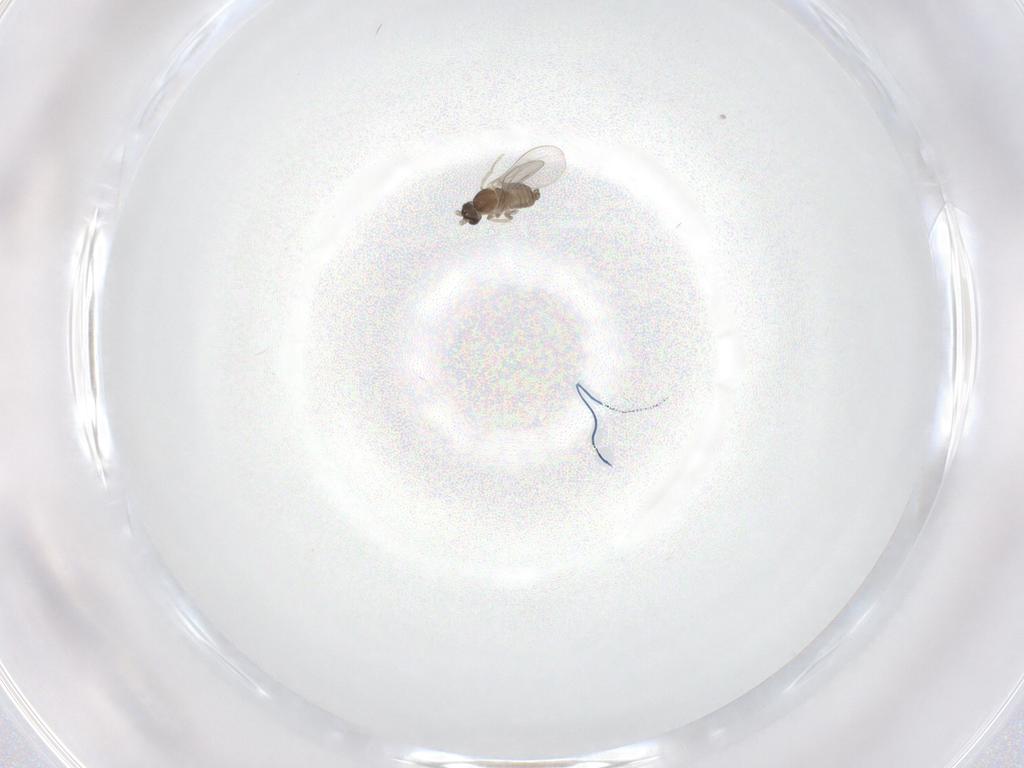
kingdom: Animalia
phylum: Arthropoda
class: Insecta
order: Diptera
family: Cecidomyiidae
